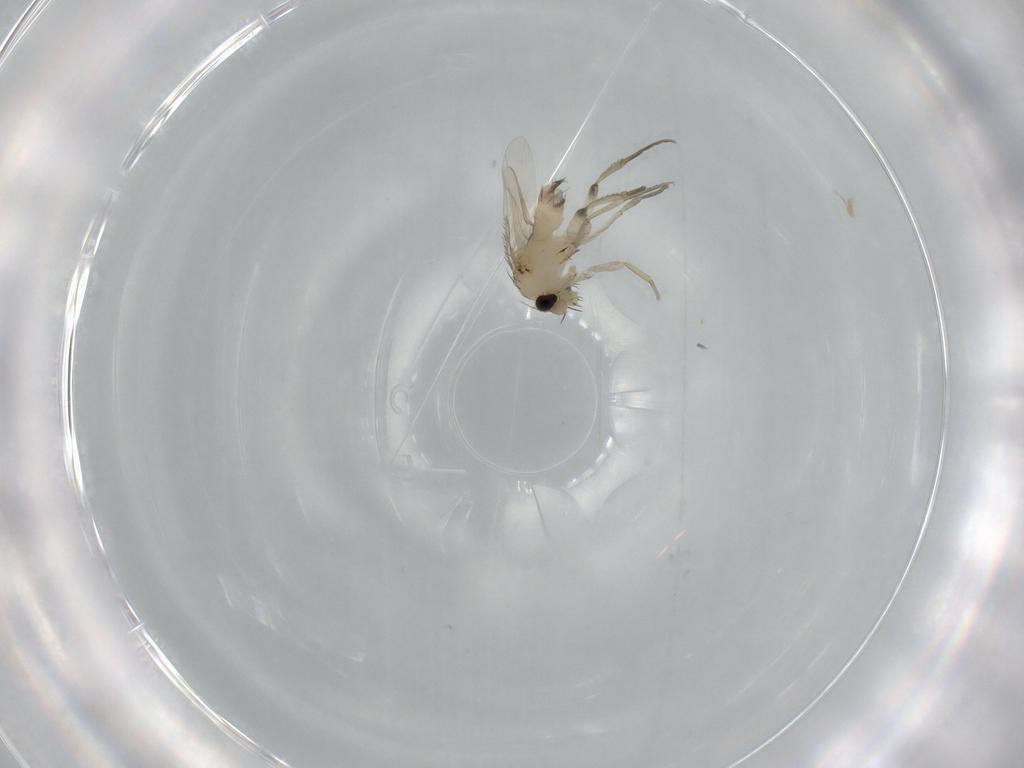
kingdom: Animalia
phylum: Arthropoda
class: Insecta
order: Diptera
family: Phoridae
